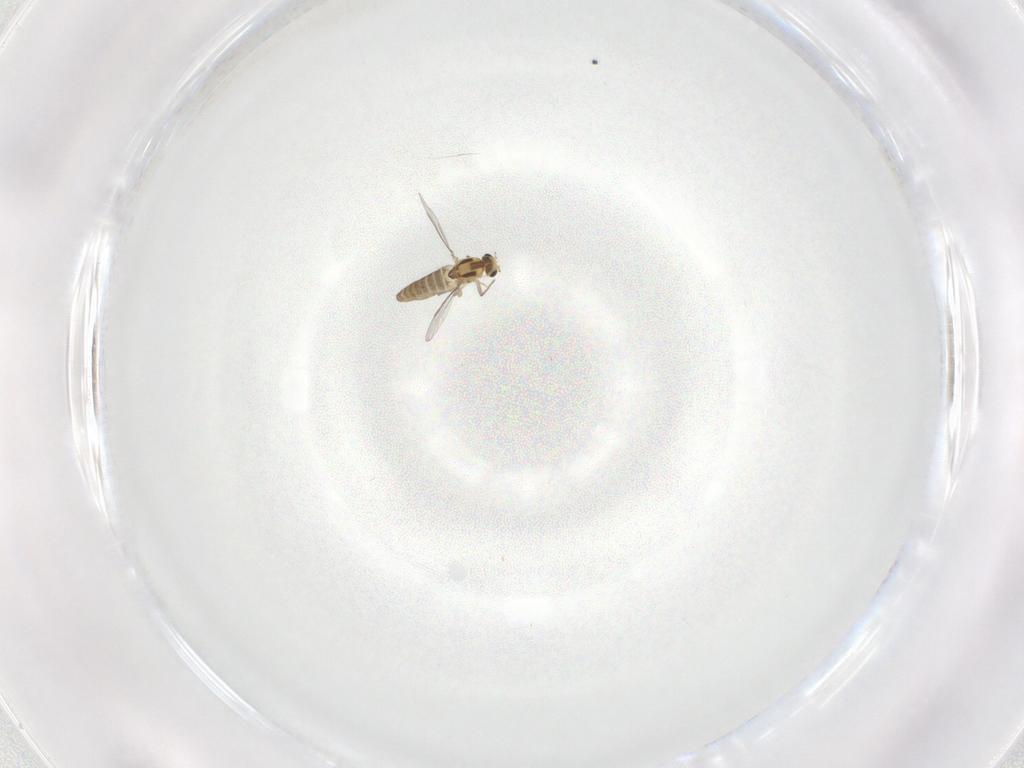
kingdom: Animalia
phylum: Arthropoda
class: Insecta
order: Diptera
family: Chironomidae
